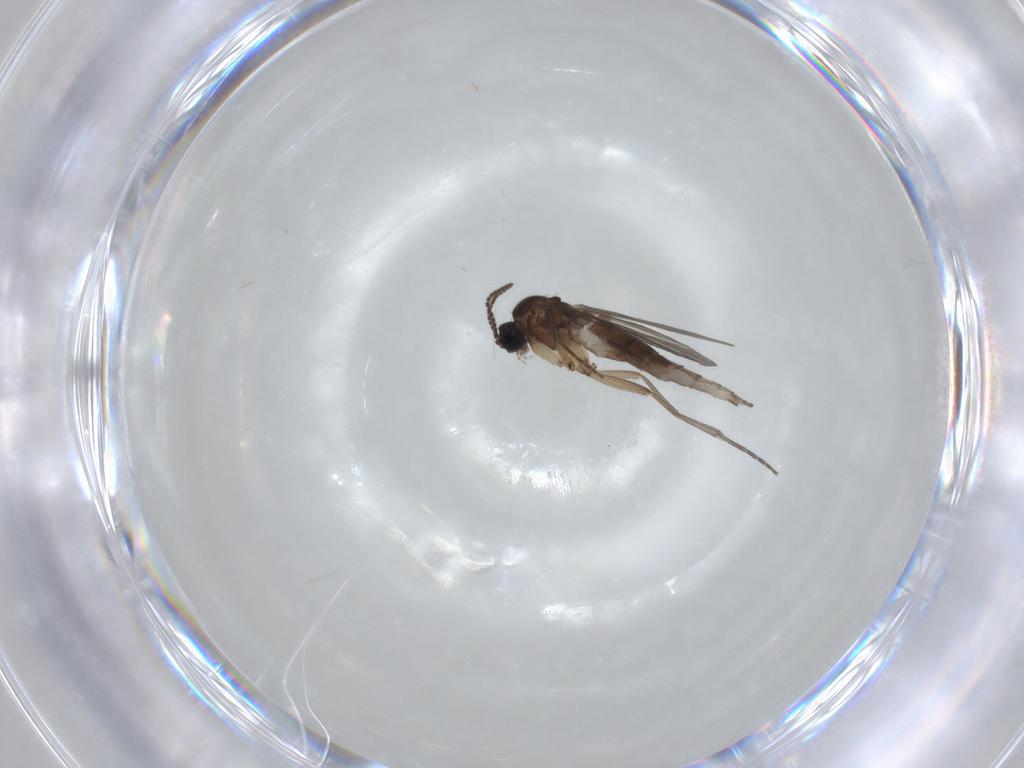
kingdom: Animalia
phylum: Arthropoda
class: Insecta
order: Diptera
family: Sciaridae
